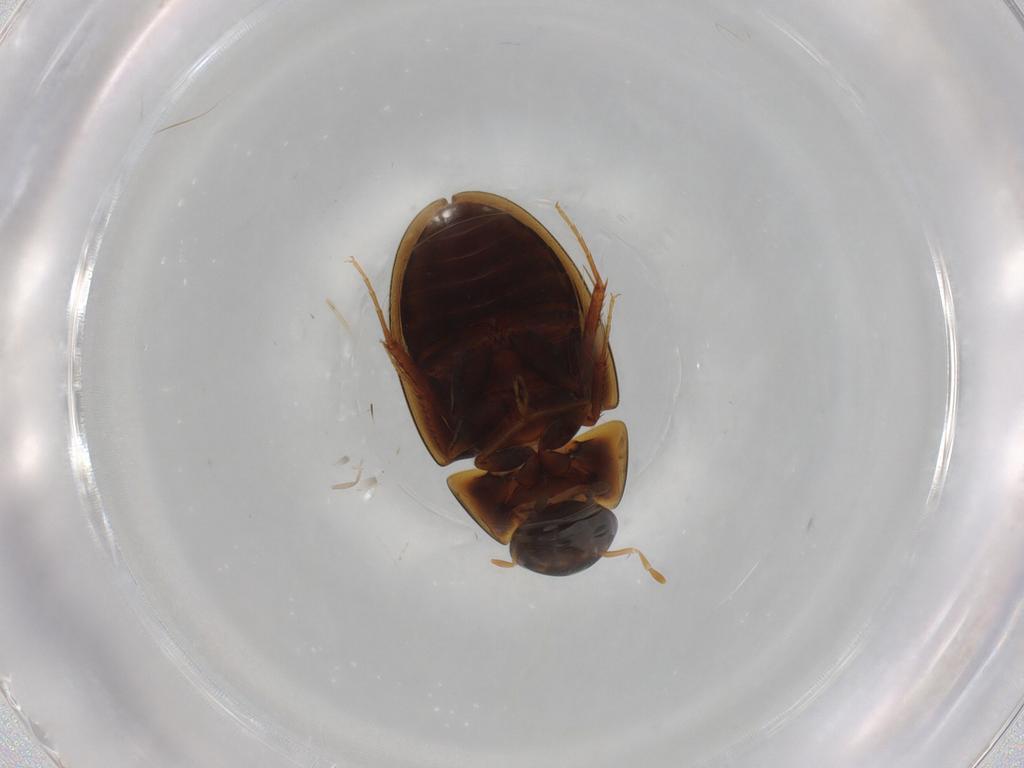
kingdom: Animalia
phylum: Arthropoda
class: Insecta
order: Coleoptera
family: Hydrophilidae
